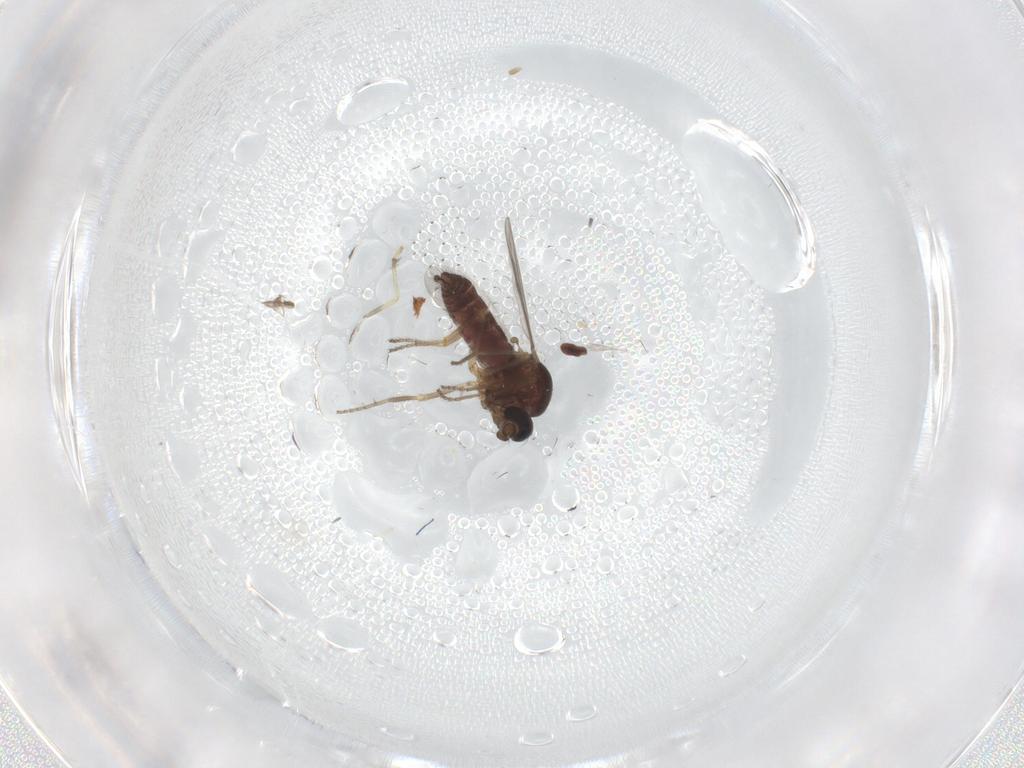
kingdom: Animalia
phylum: Arthropoda
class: Insecta
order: Diptera
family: Ceratopogonidae
